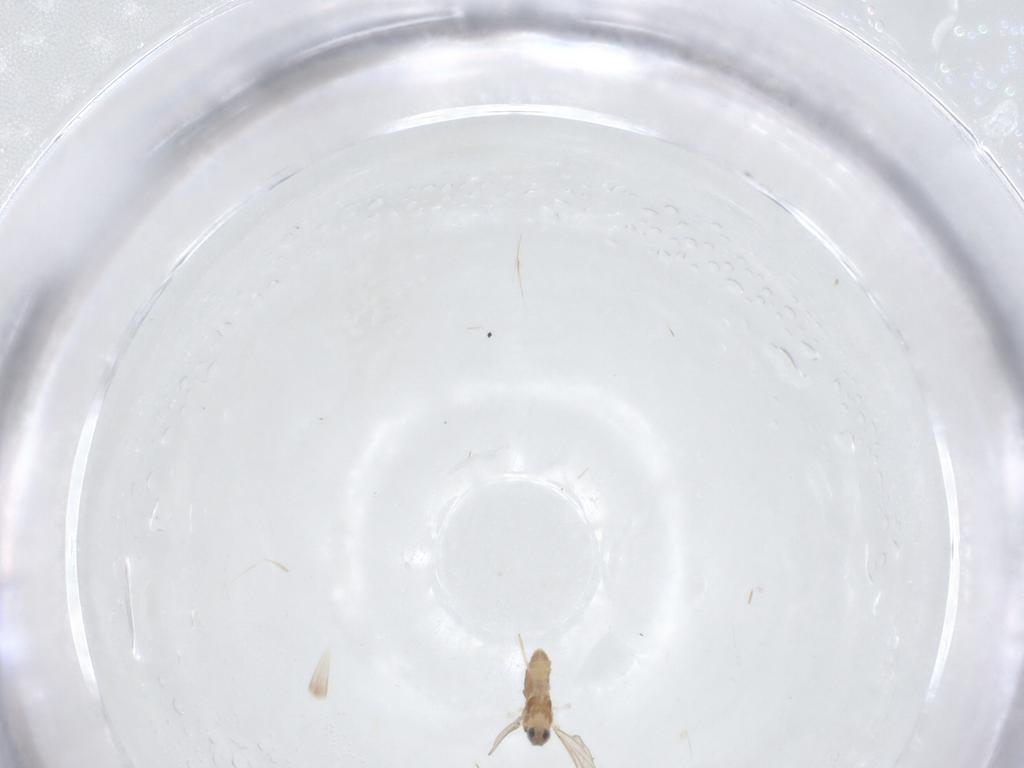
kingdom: Animalia
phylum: Arthropoda
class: Insecta
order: Diptera
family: Cecidomyiidae
